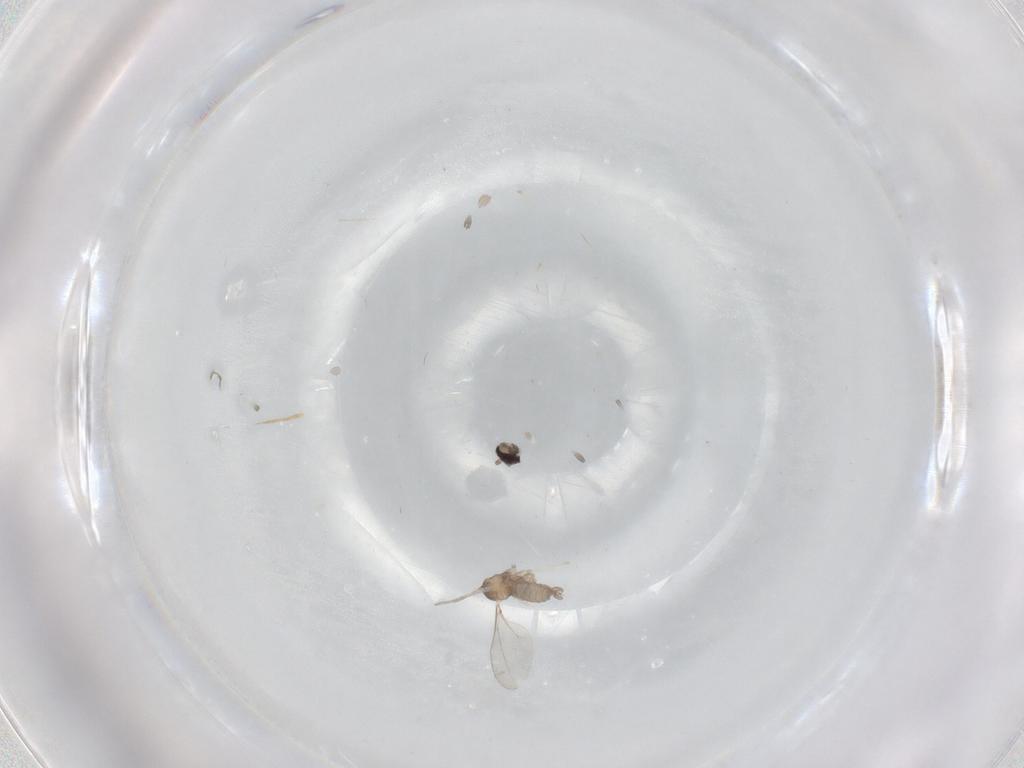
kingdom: Animalia
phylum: Arthropoda
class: Insecta
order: Diptera
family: Cecidomyiidae
